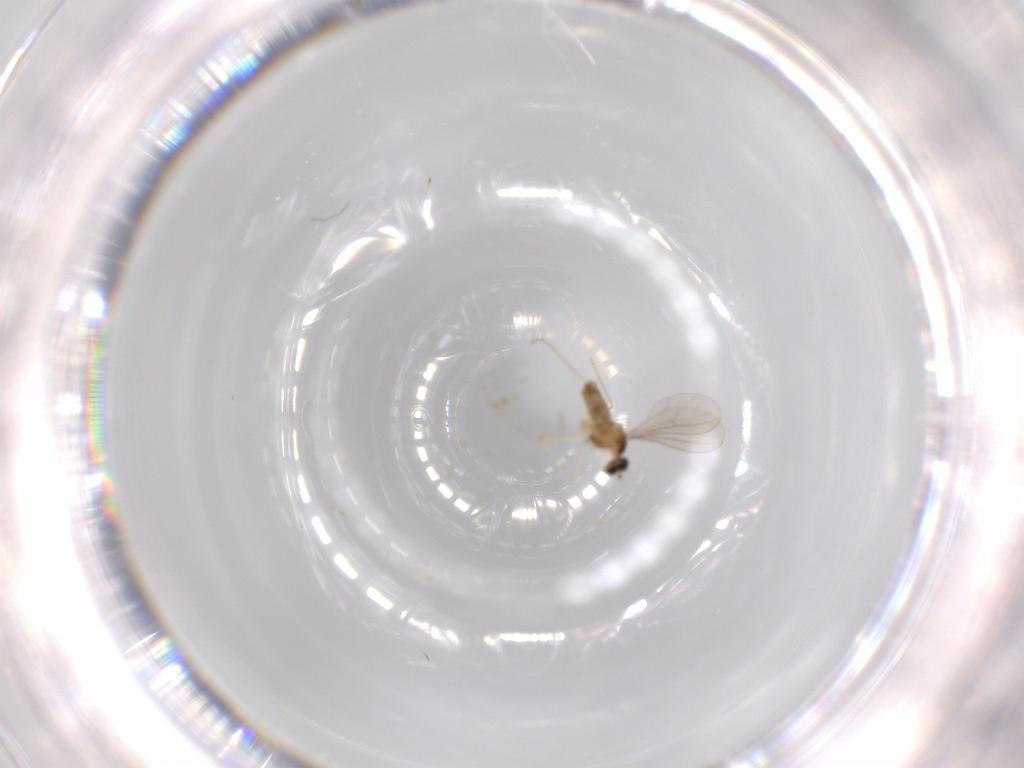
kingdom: Animalia
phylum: Arthropoda
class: Insecta
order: Diptera
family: Cecidomyiidae
